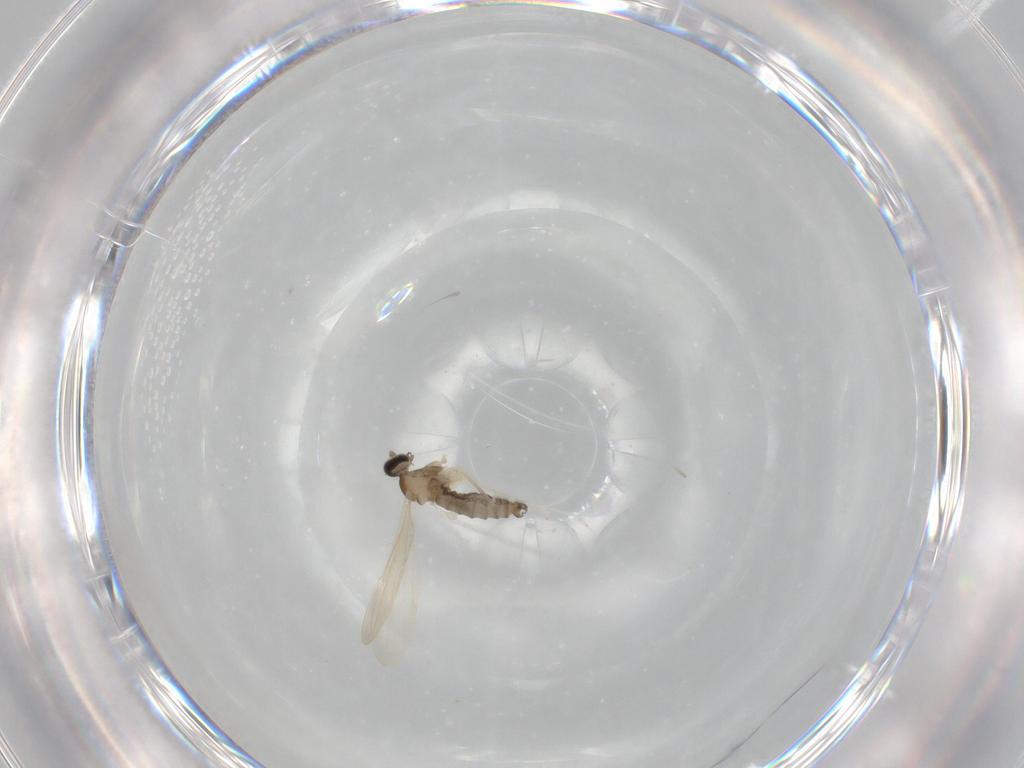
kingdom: Animalia
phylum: Arthropoda
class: Insecta
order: Diptera
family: Cecidomyiidae
